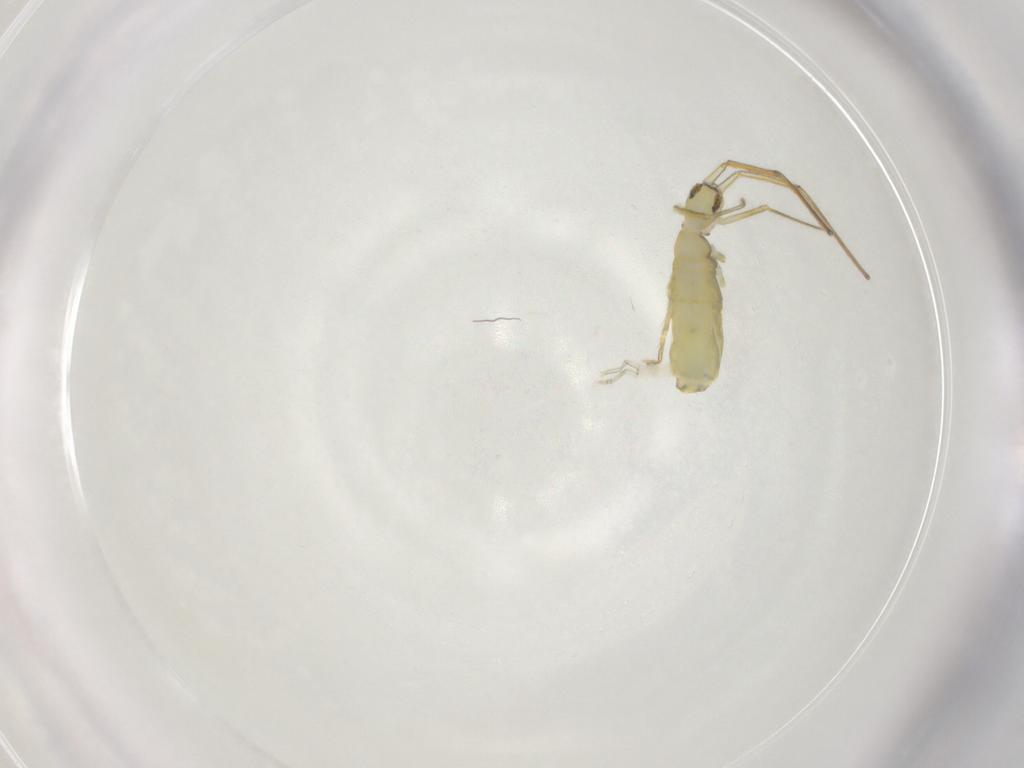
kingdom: Animalia
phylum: Arthropoda
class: Collembola
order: Entomobryomorpha
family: Entomobryidae
